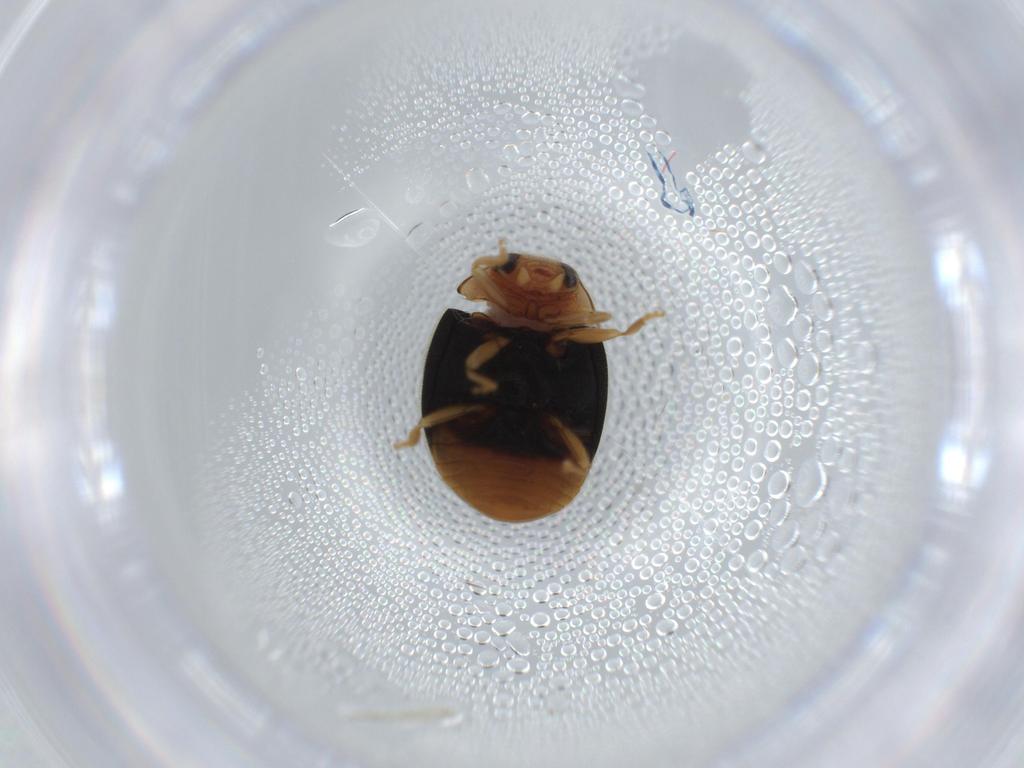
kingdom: Animalia
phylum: Arthropoda
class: Insecta
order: Coleoptera
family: Coccinellidae
